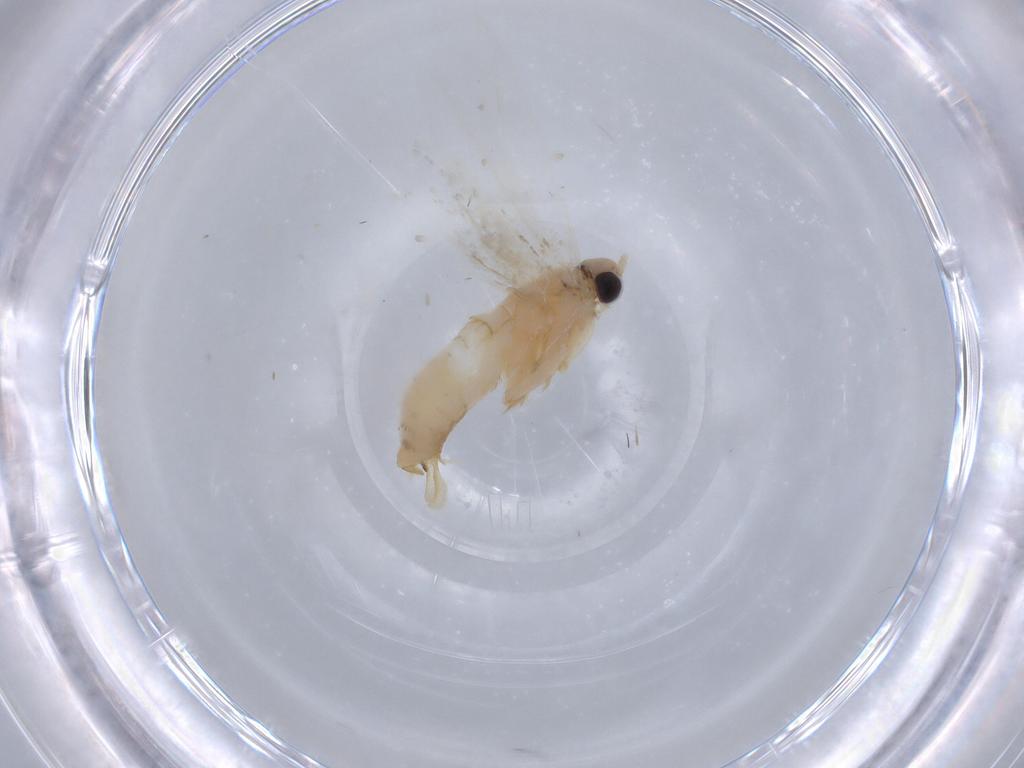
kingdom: Animalia
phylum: Arthropoda
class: Insecta
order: Lepidoptera
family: Tineidae
